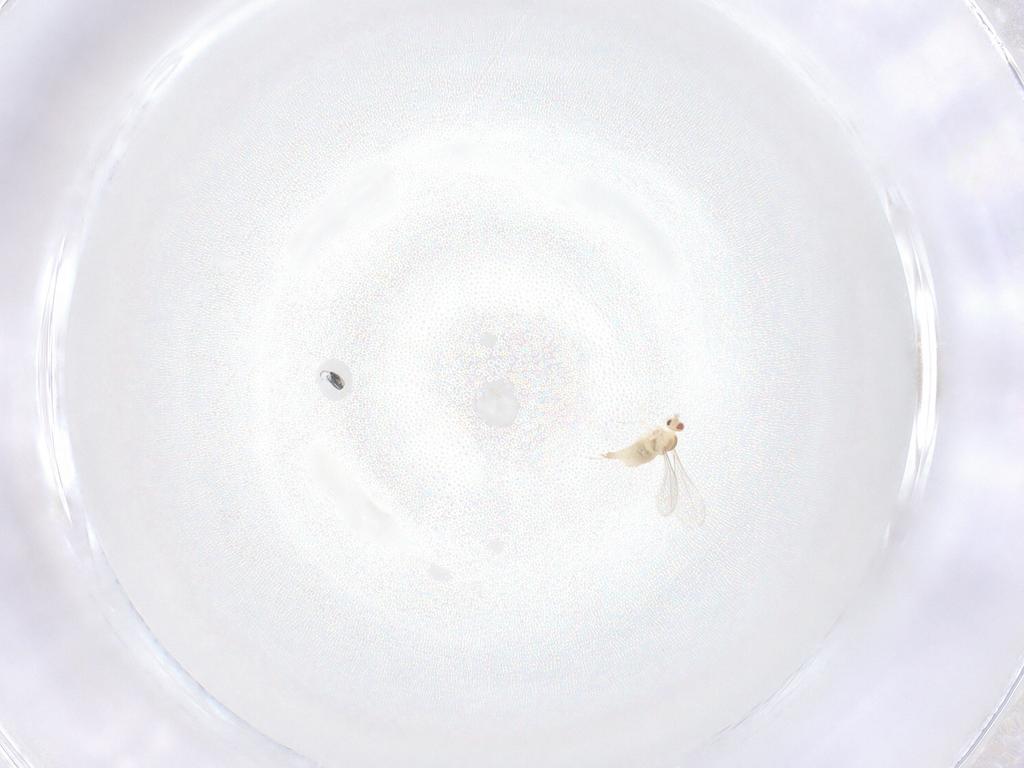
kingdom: Animalia
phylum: Arthropoda
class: Insecta
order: Diptera
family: Cecidomyiidae
